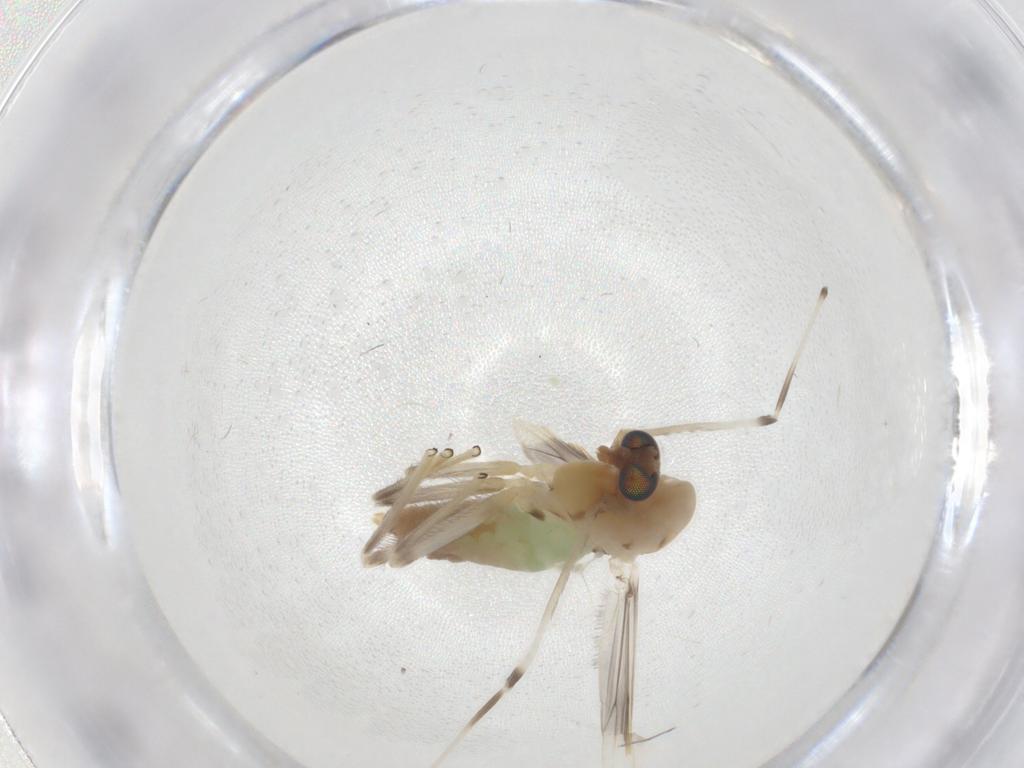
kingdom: Animalia
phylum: Arthropoda
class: Insecta
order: Diptera
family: Chironomidae
